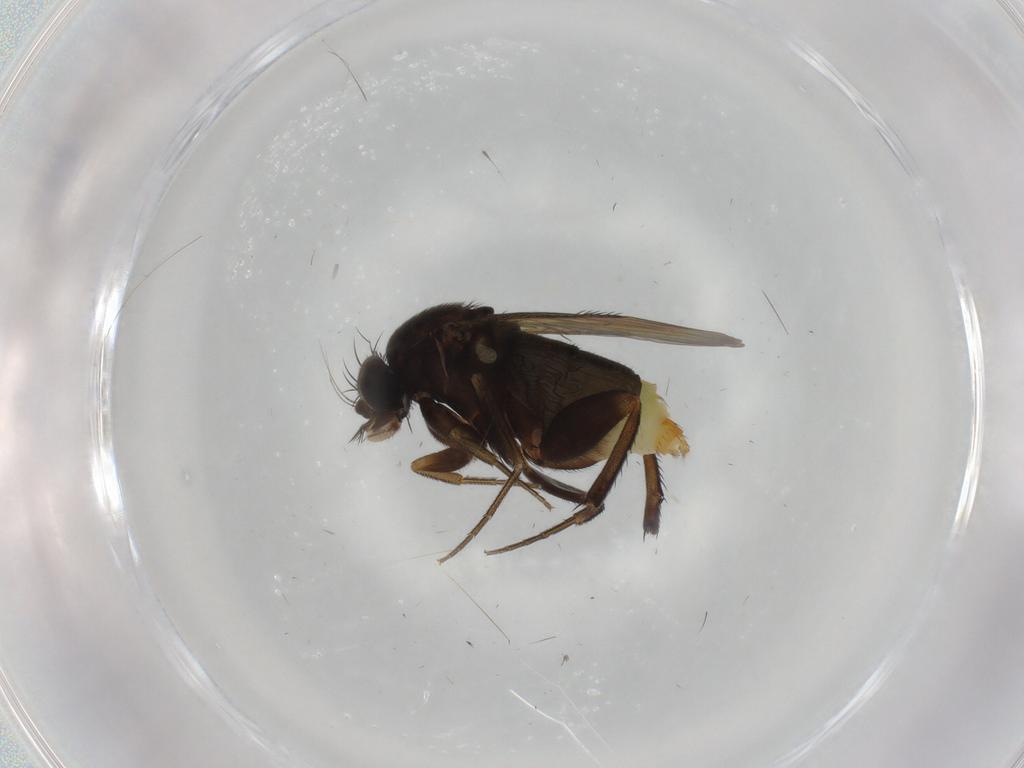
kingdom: Animalia
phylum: Arthropoda
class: Insecta
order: Diptera
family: Phoridae
